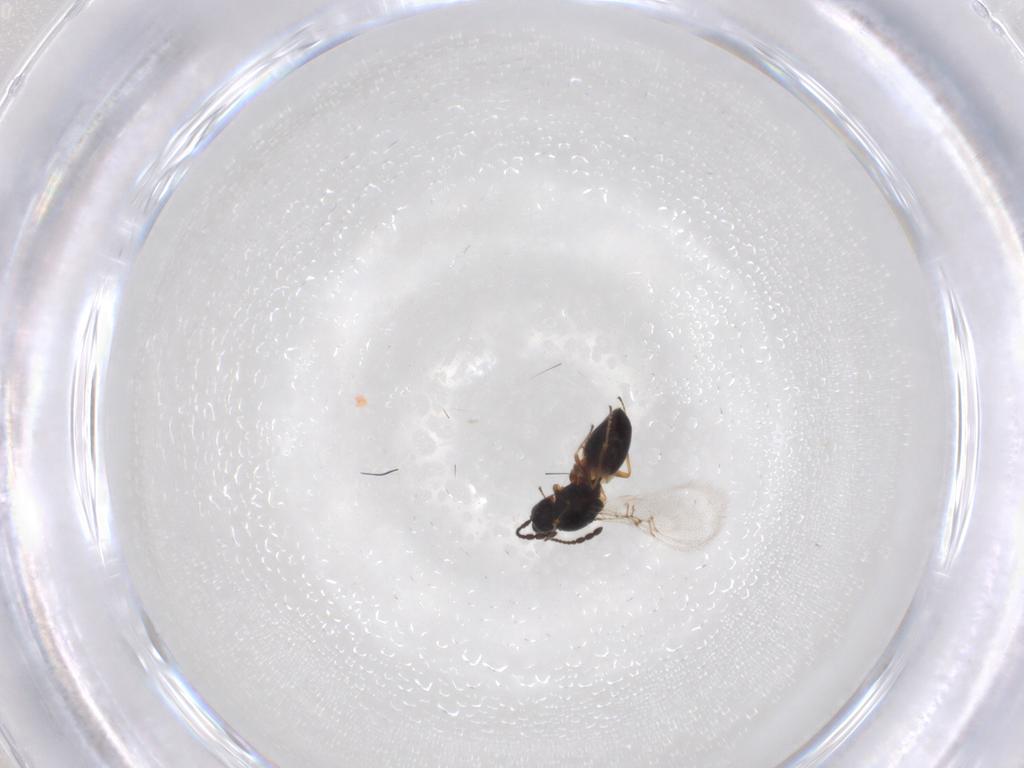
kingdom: Animalia
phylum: Arthropoda
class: Insecta
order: Hymenoptera
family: Figitidae
